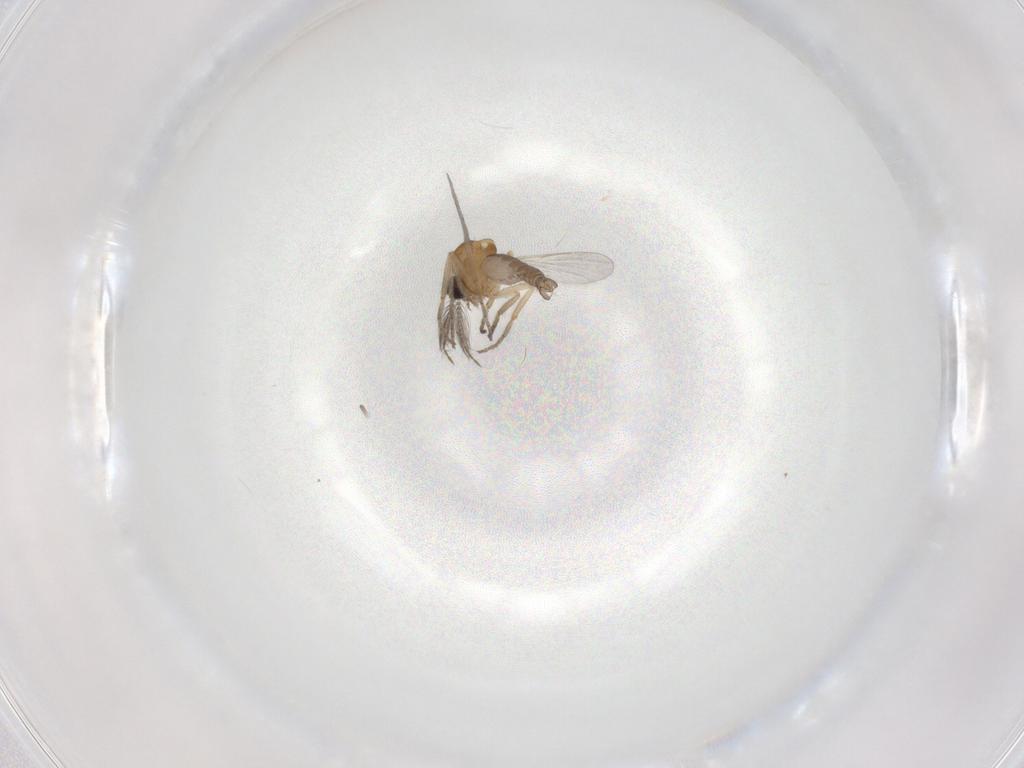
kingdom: Animalia
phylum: Arthropoda
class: Insecta
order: Diptera
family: Ceratopogonidae
